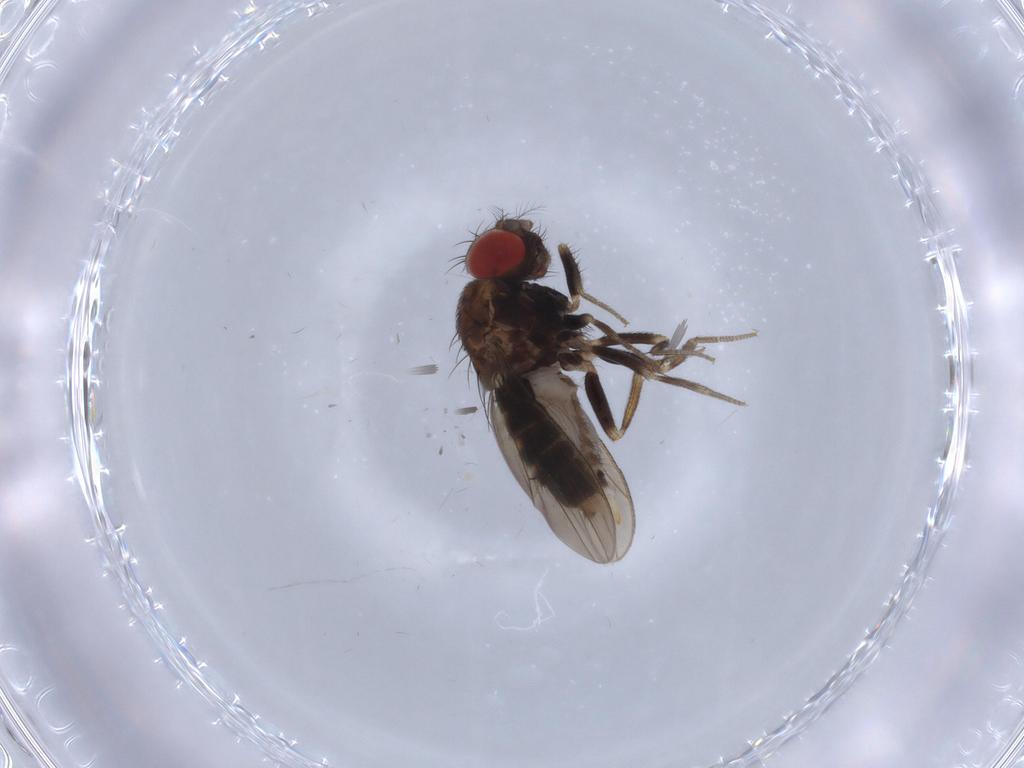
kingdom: Animalia
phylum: Arthropoda
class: Insecta
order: Diptera
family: Drosophilidae
